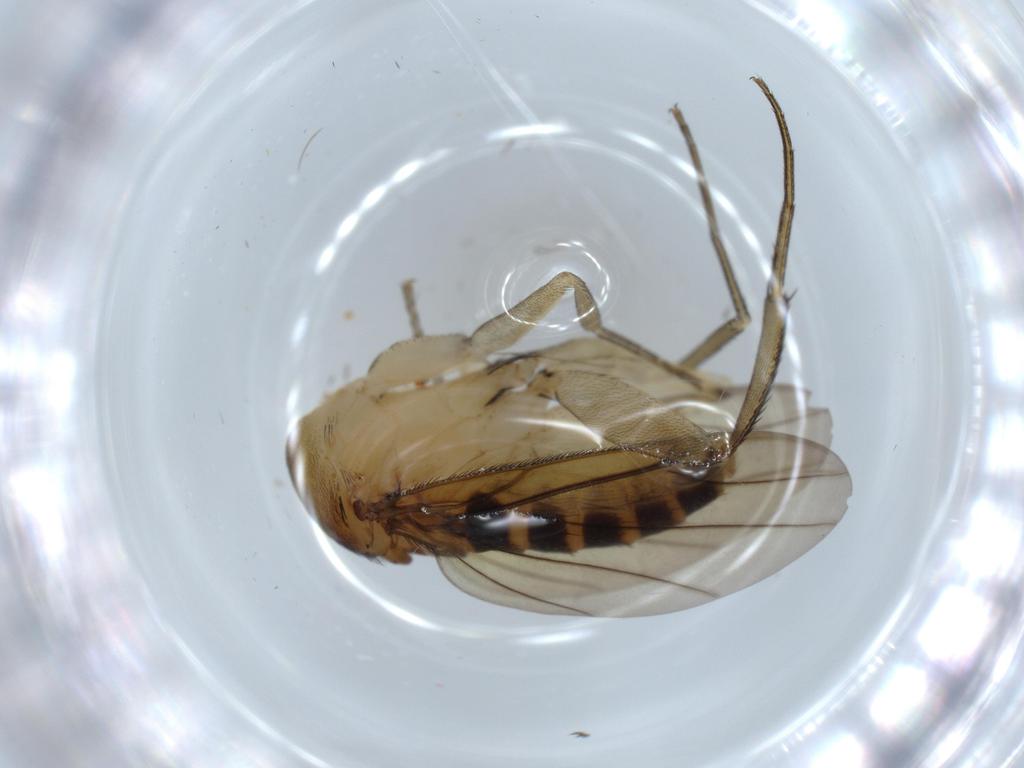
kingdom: Animalia
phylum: Arthropoda
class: Insecta
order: Diptera
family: Phoridae
